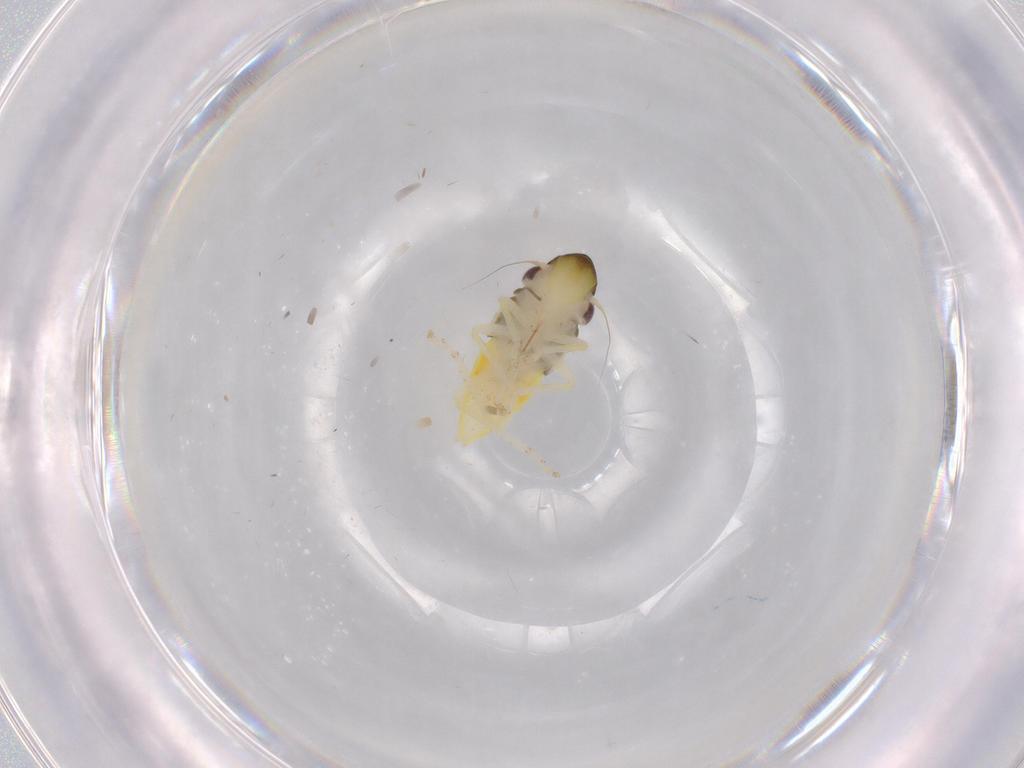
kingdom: Animalia
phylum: Arthropoda
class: Insecta
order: Hemiptera
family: Cicadellidae
